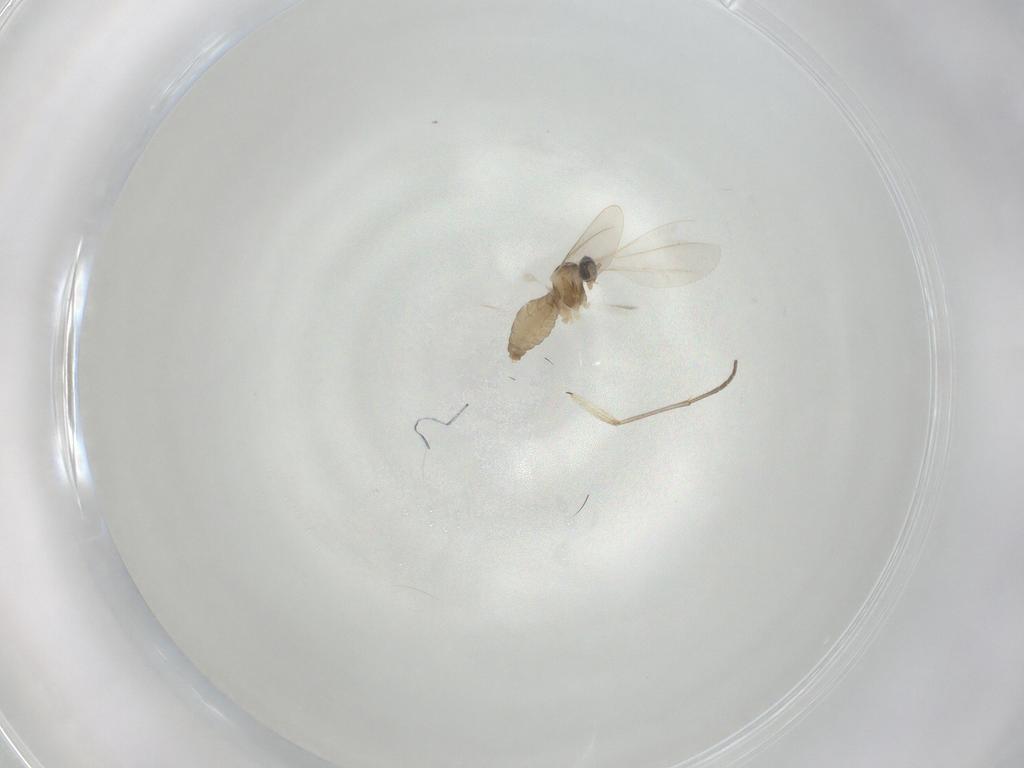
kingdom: Animalia
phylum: Arthropoda
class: Insecta
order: Diptera
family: Sciaridae
